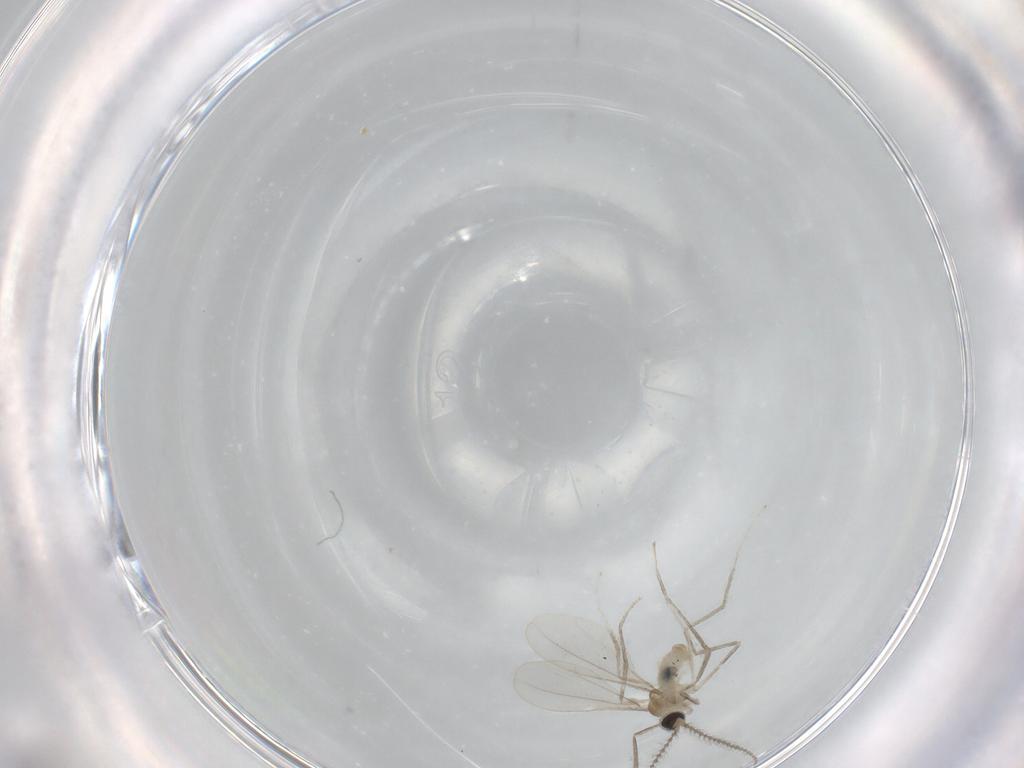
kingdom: Animalia
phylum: Arthropoda
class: Insecta
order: Diptera
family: Cecidomyiidae
